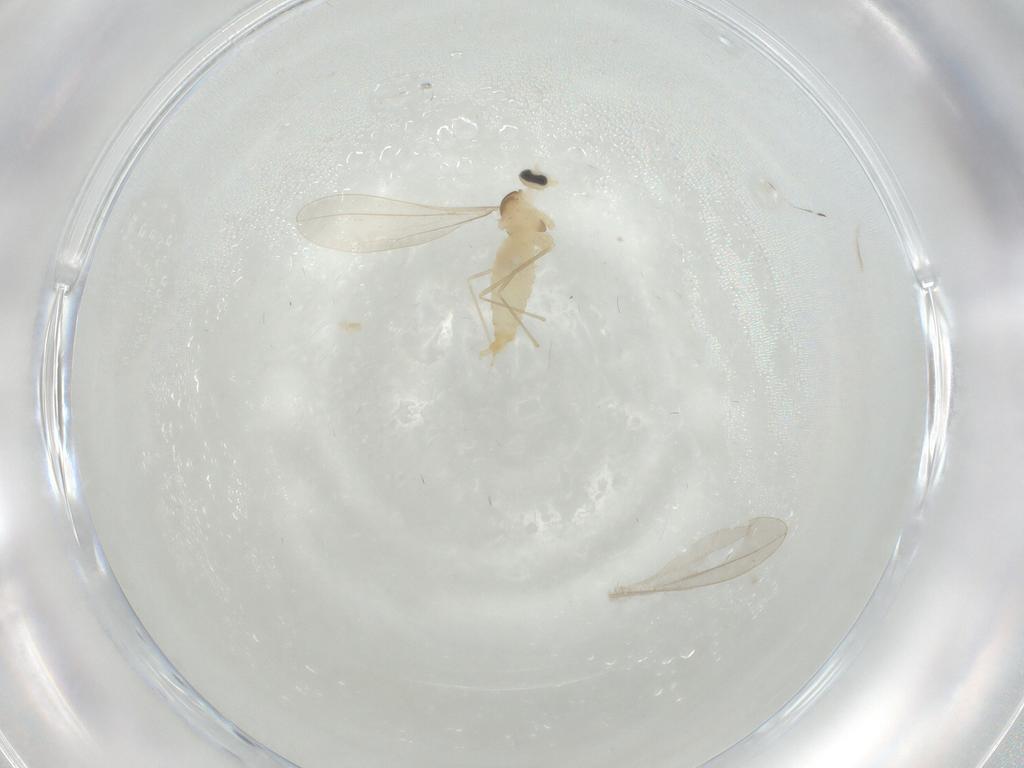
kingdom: Animalia
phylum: Arthropoda
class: Insecta
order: Diptera
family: Cecidomyiidae
